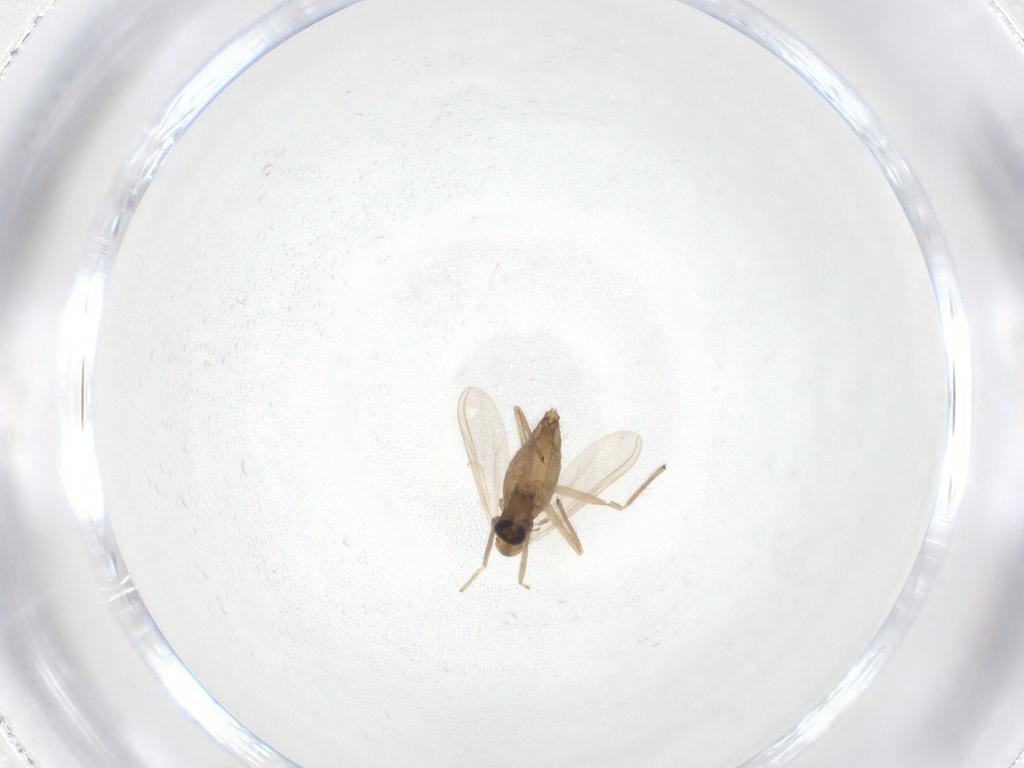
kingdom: Animalia
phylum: Arthropoda
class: Insecta
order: Diptera
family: Chironomidae
